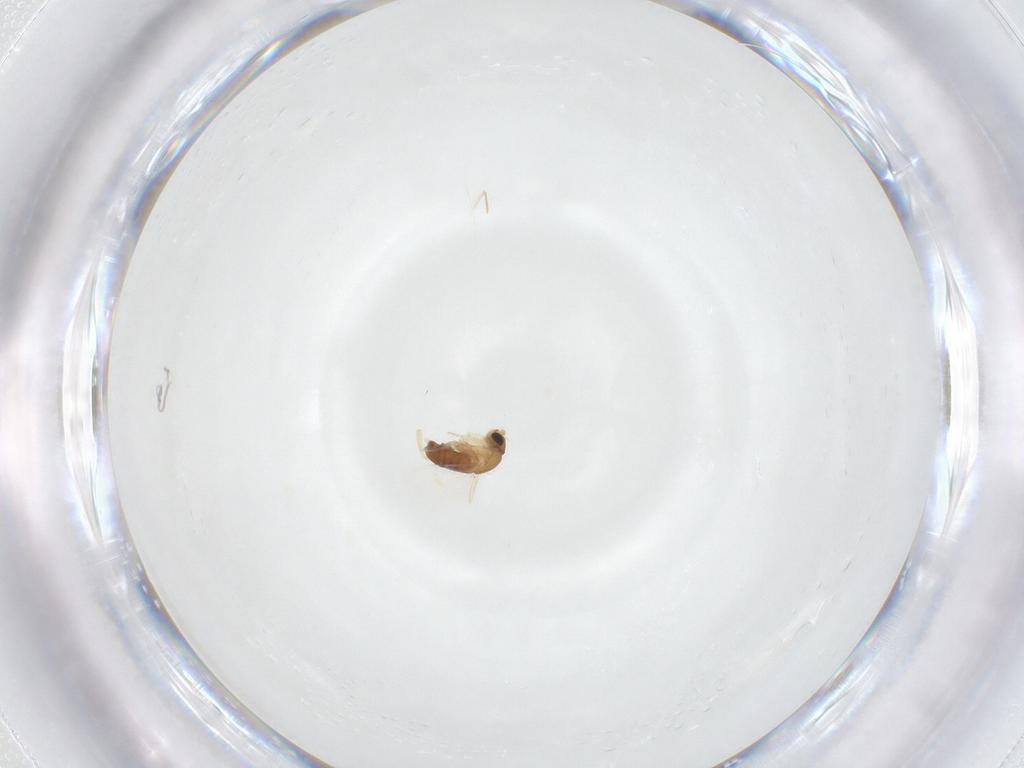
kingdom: Animalia
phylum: Arthropoda
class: Insecta
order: Diptera
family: Phoridae
